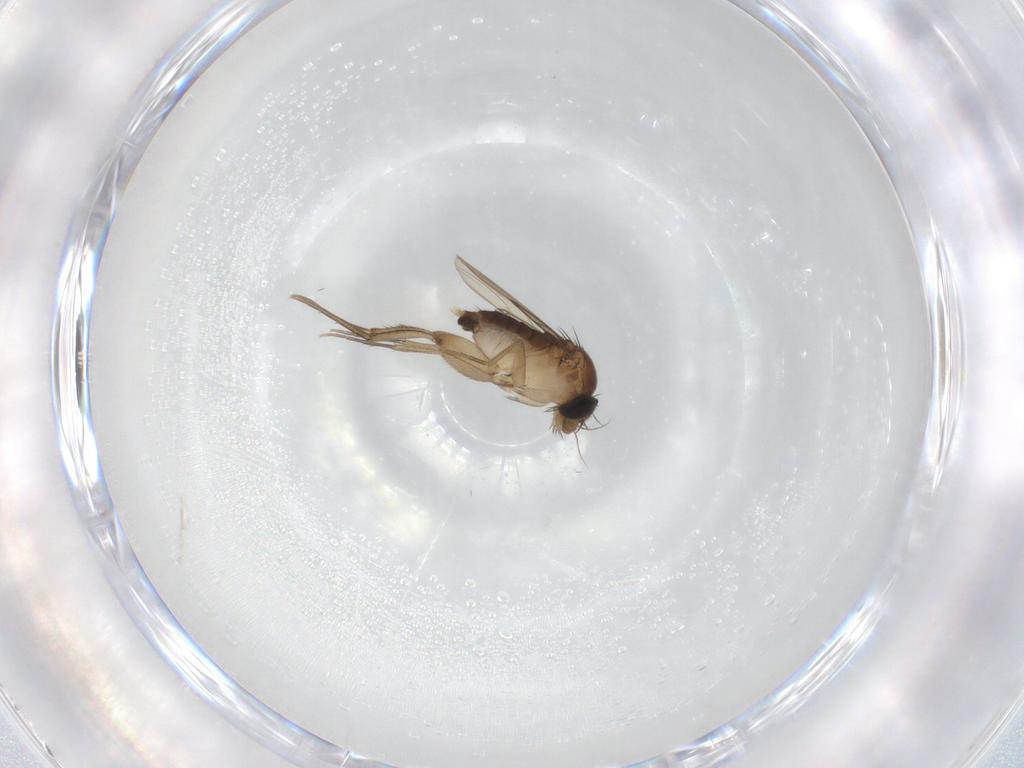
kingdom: Animalia
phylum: Arthropoda
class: Insecta
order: Diptera
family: Phoridae
